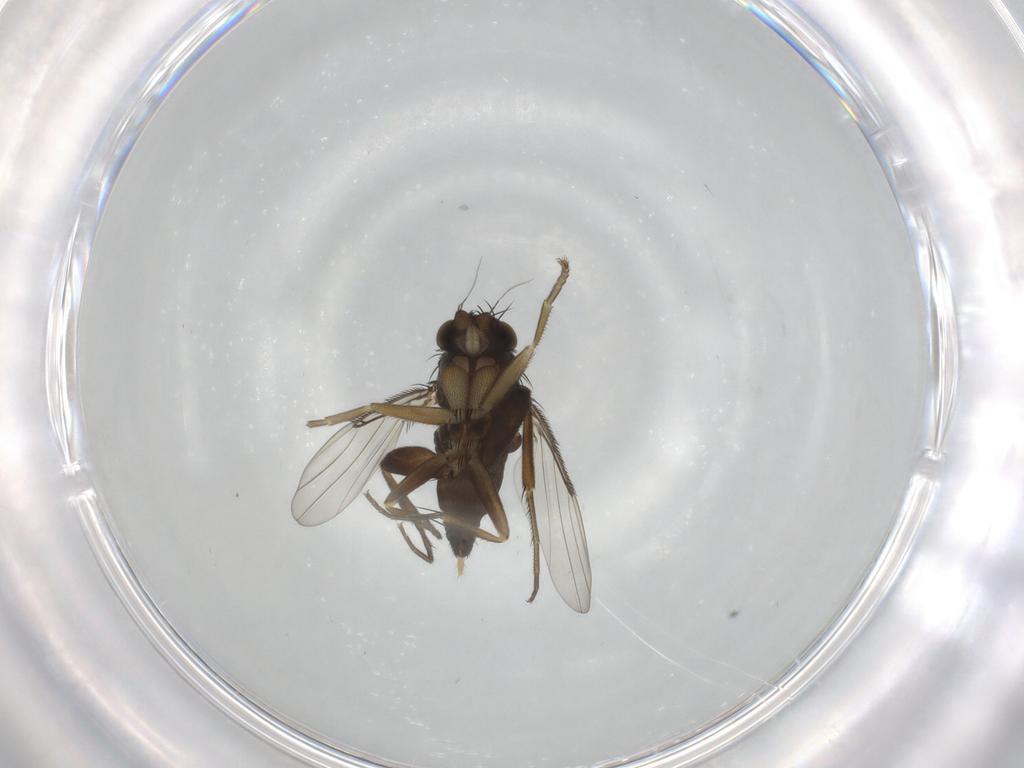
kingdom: Animalia
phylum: Arthropoda
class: Insecta
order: Diptera
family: Phoridae
